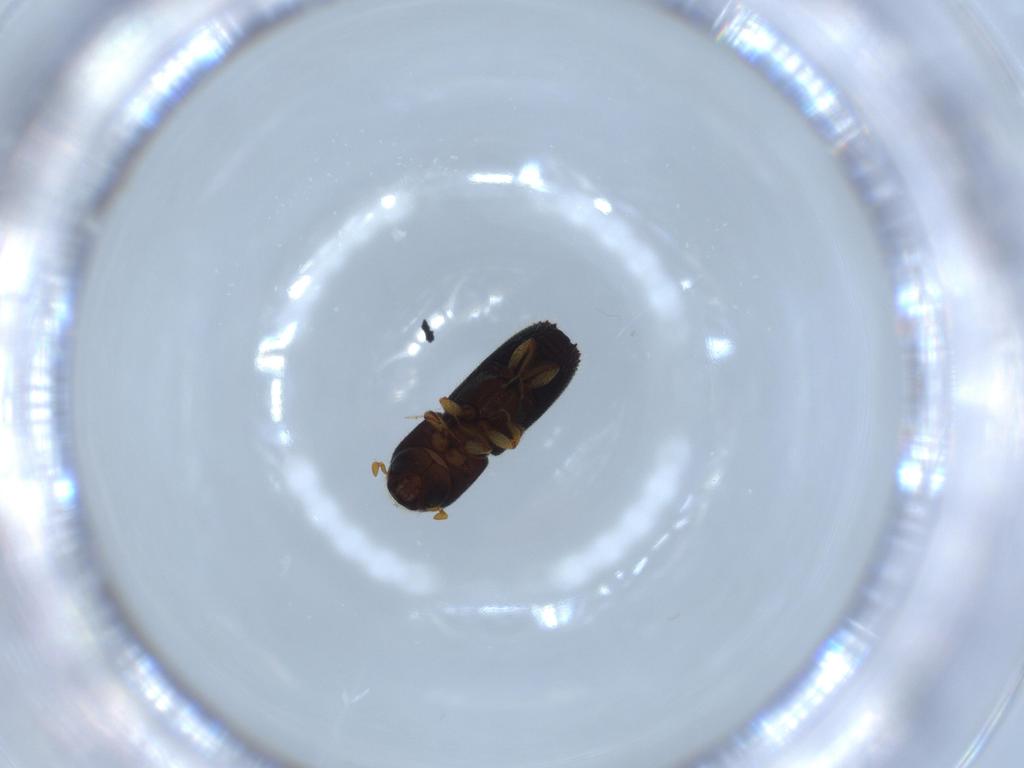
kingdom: Animalia
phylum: Arthropoda
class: Insecta
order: Coleoptera
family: Curculionidae
